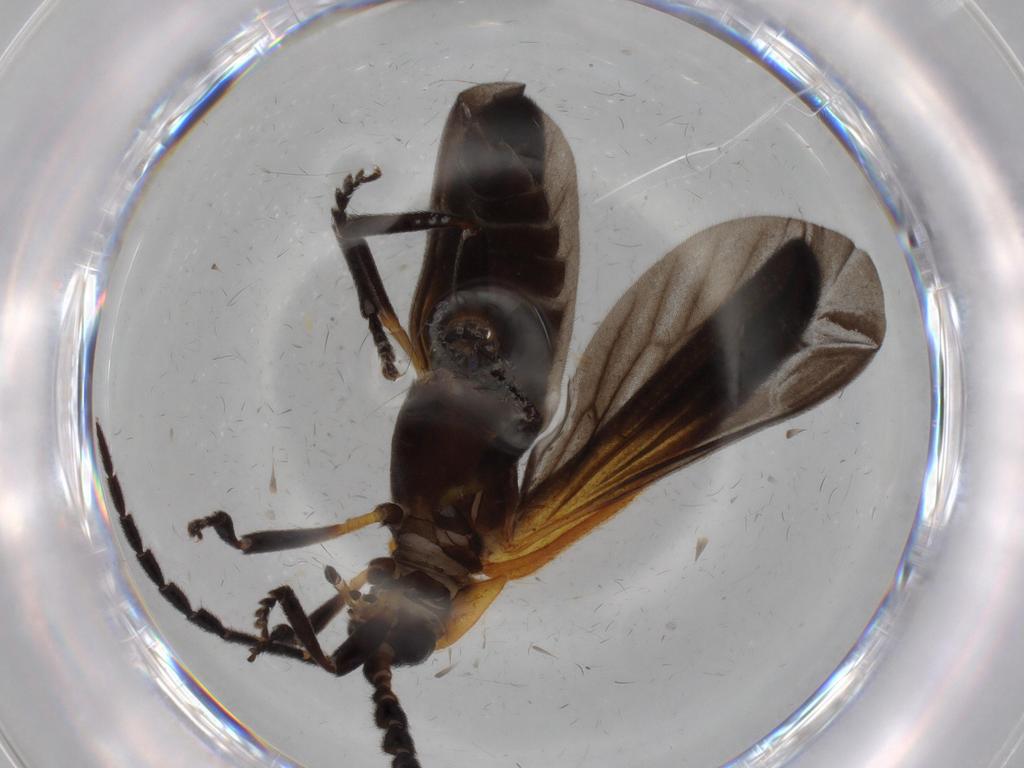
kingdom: Animalia
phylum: Arthropoda
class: Insecta
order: Coleoptera
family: Lycidae
